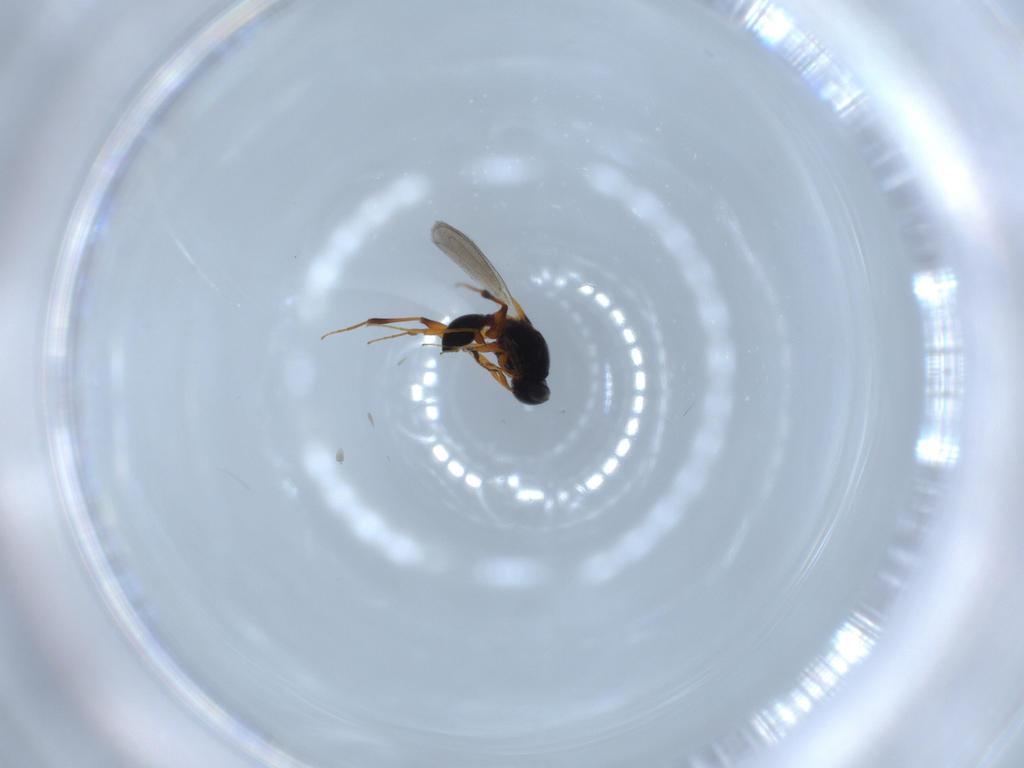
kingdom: Animalia
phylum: Arthropoda
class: Insecta
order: Hymenoptera
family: Platygastridae
